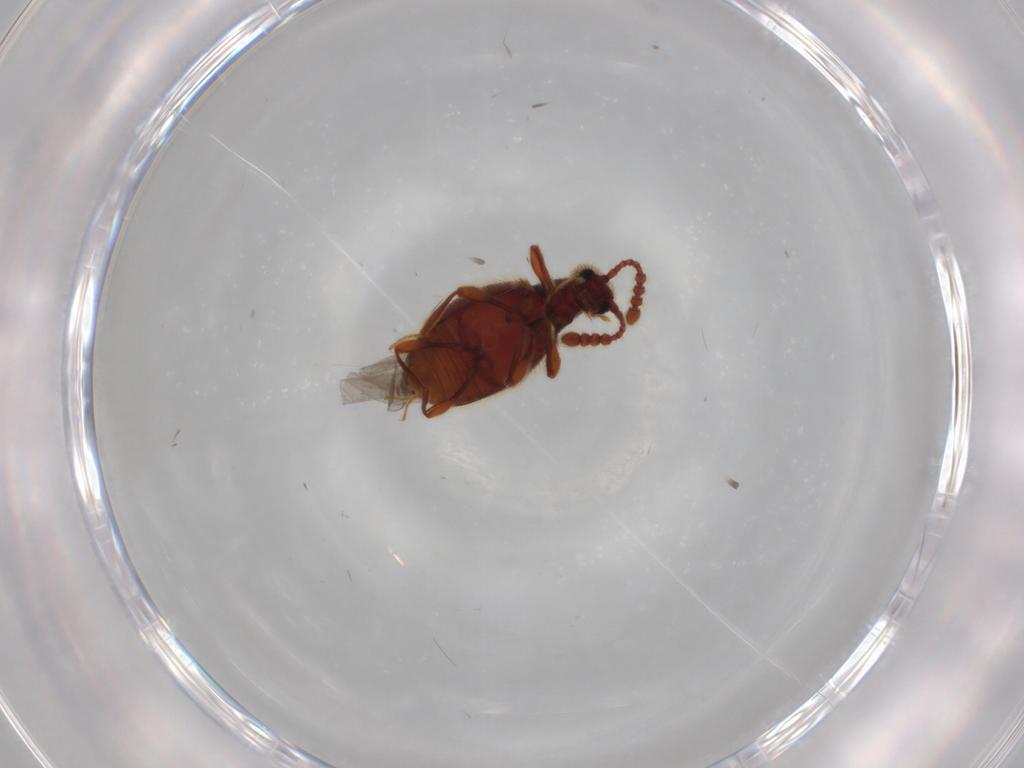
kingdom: Animalia
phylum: Arthropoda
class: Insecta
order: Coleoptera
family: Staphylinidae
